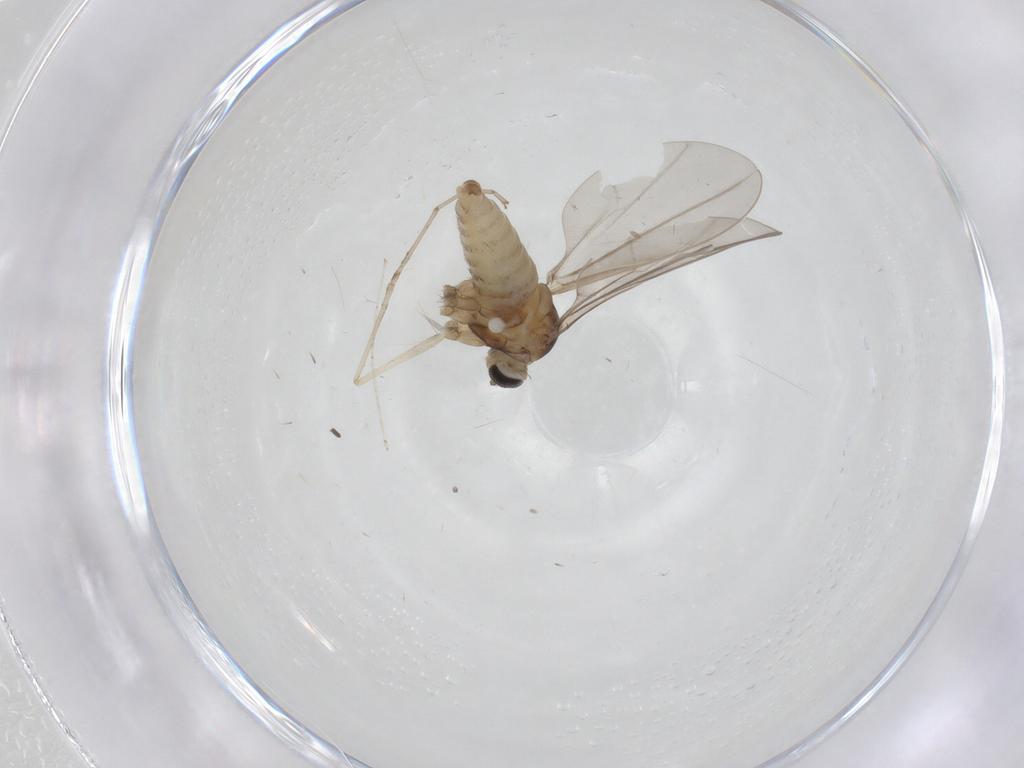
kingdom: Animalia
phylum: Arthropoda
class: Insecta
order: Diptera
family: Cecidomyiidae
